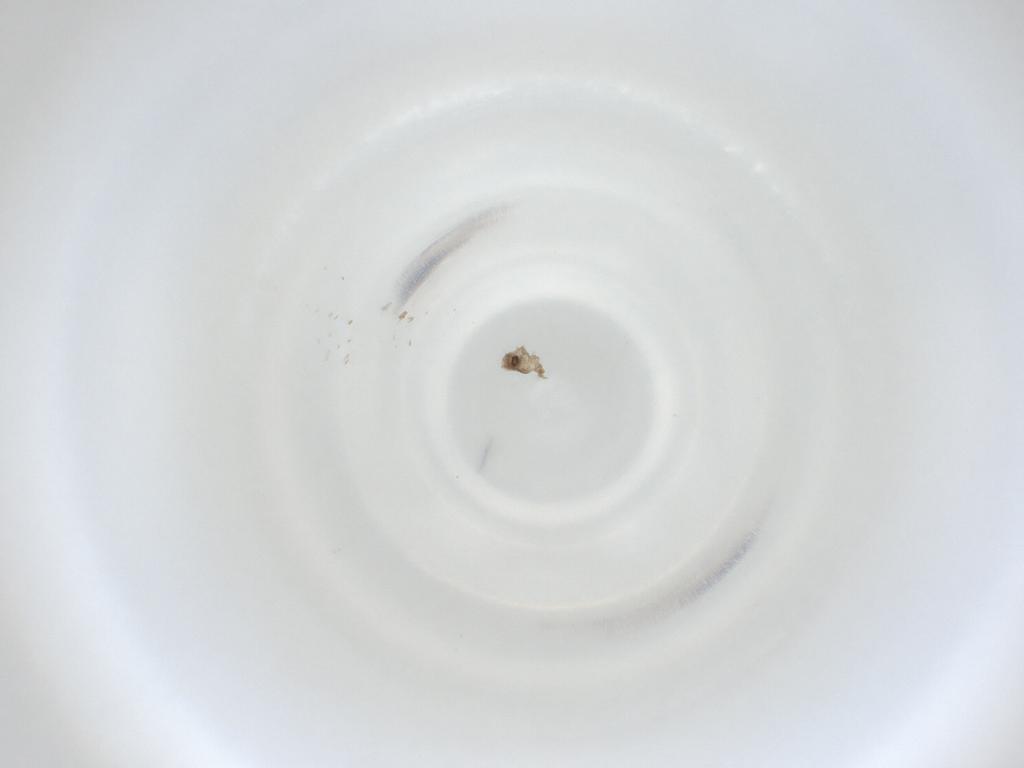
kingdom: Animalia
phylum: Arthropoda
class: Insecta
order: Diptera
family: Cecidomyiidae
